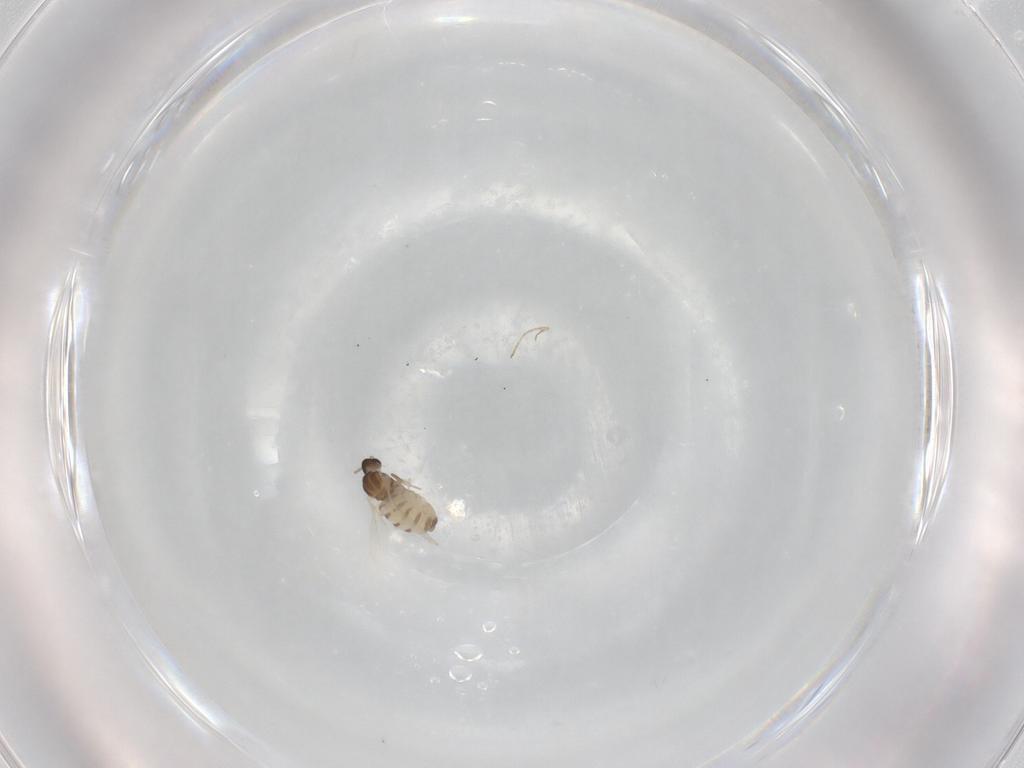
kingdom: Animalia
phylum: Arthropoda
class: Insecta
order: Diptera
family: Cecidomyiidae
